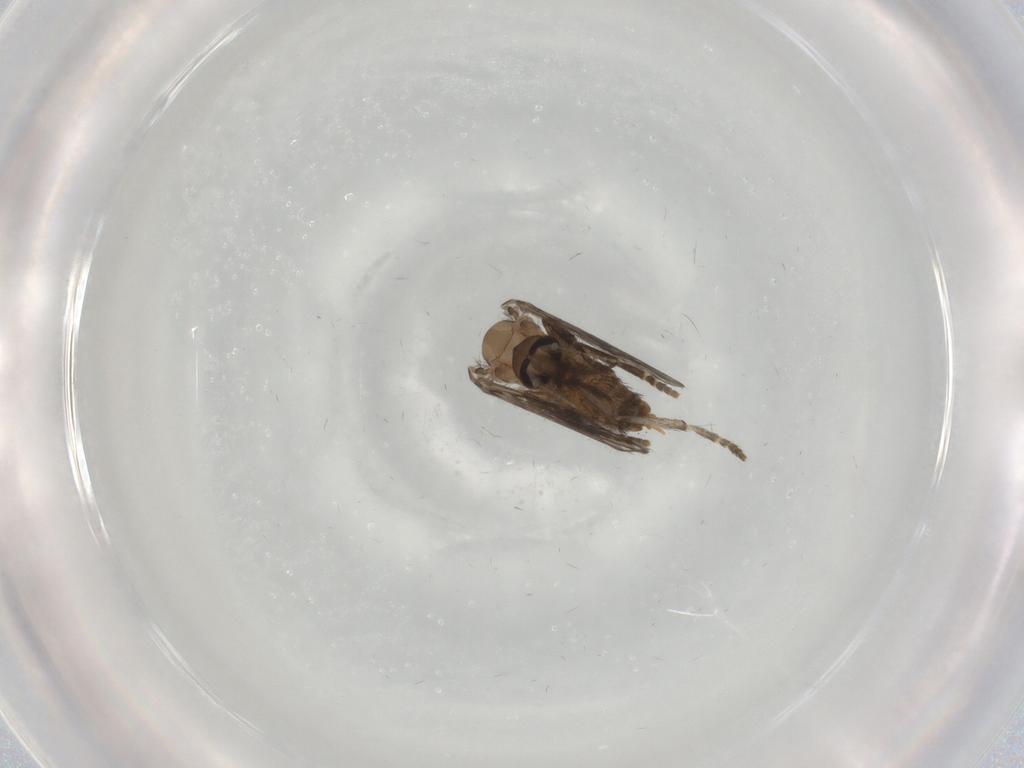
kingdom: Animalia
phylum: Arthropoda
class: Insecta
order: Diptera
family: Psychodidae
